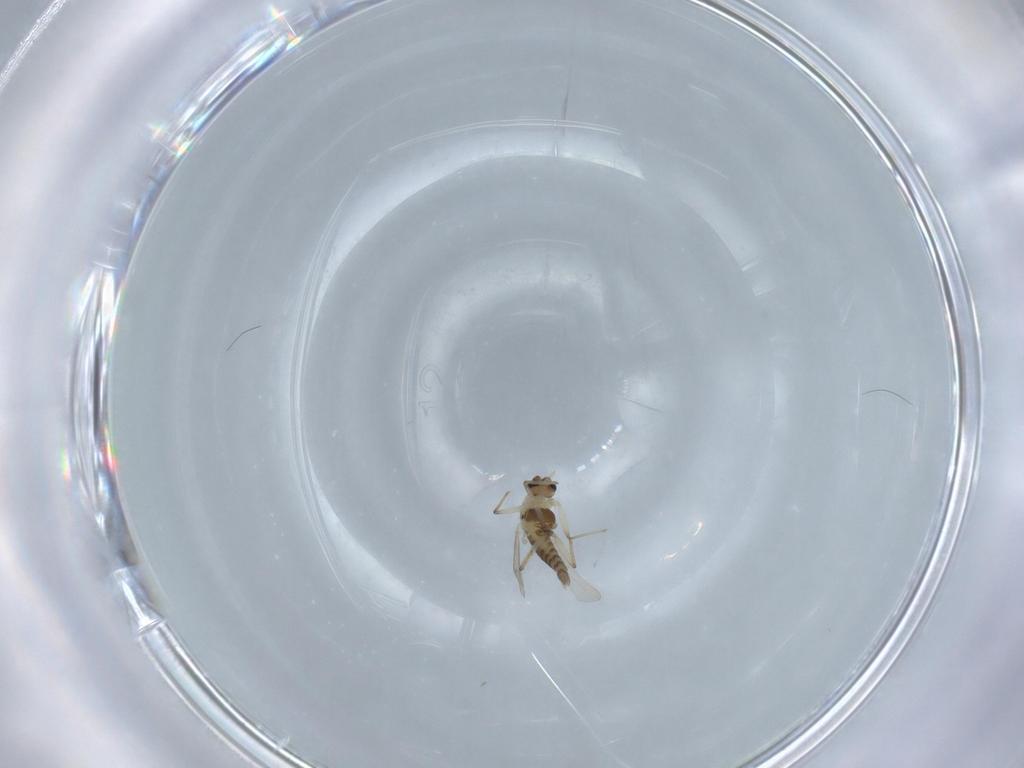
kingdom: Animalia
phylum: Arthropoda
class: Insecta
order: Diptera
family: Chironomidae
